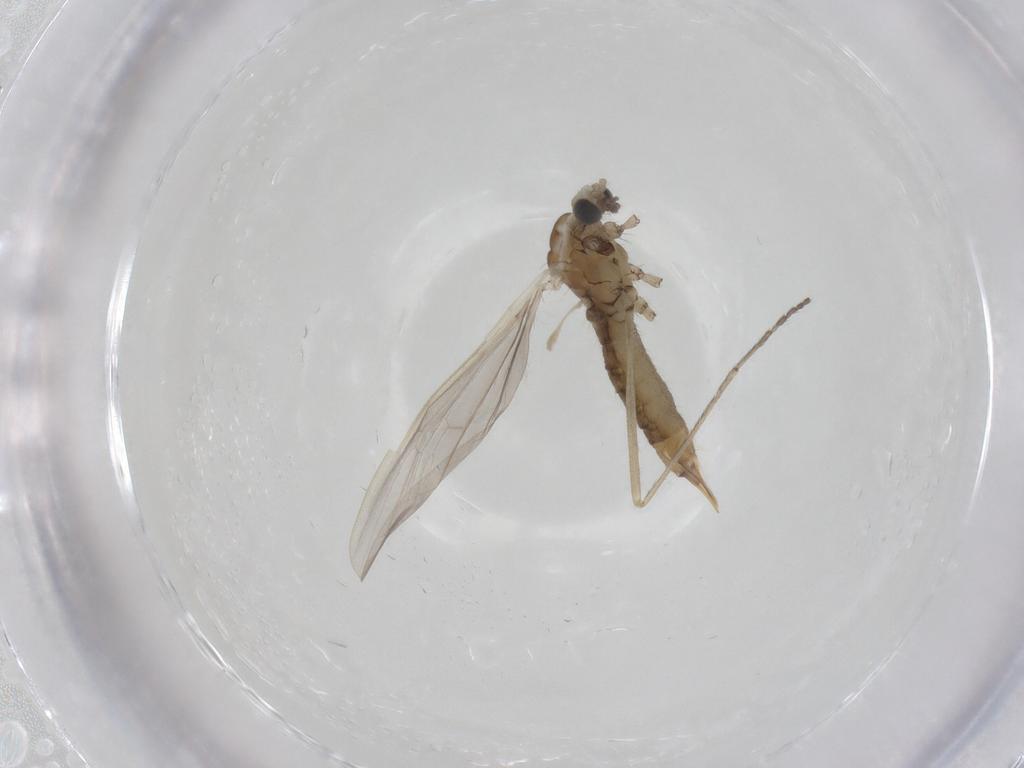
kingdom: Animalia
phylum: Arthropoda
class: Insecta
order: Diptera
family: Limoniidae
